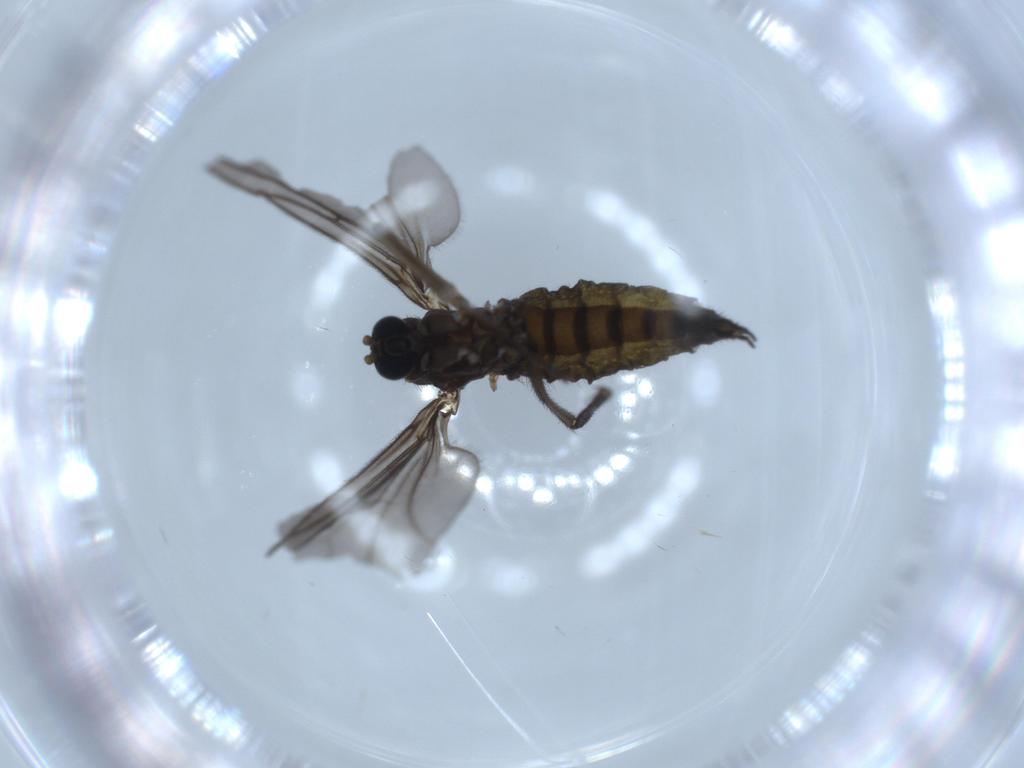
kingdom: Animalia
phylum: Arthropoda
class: Insecta
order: Diptera
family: Sciaridae
